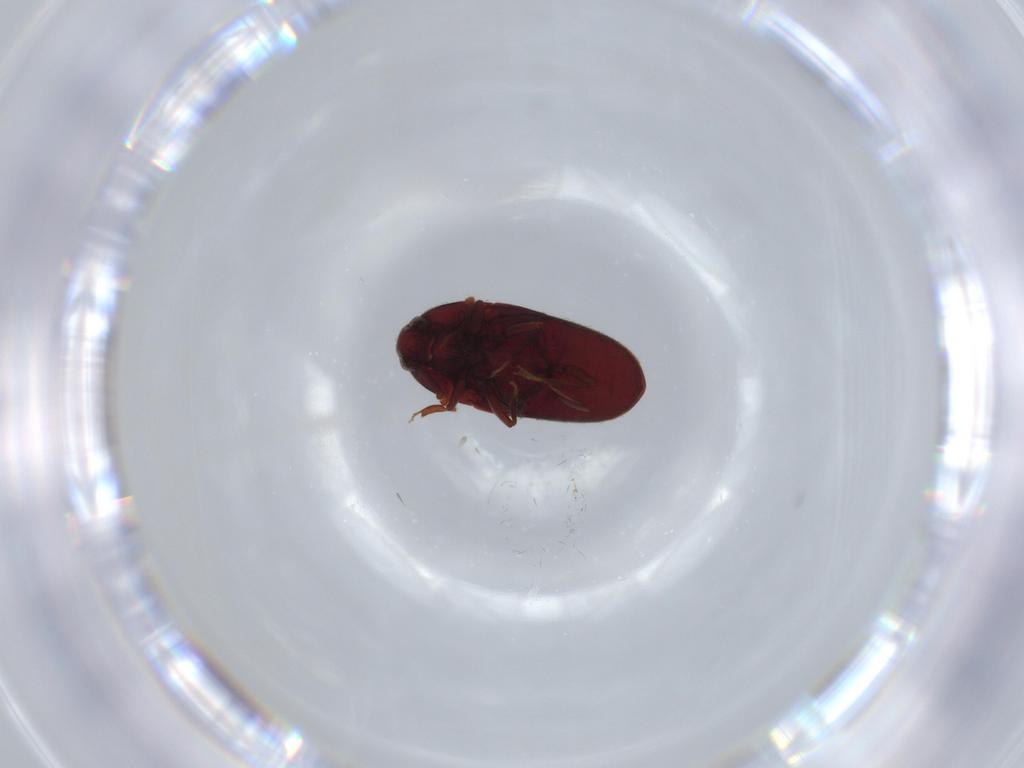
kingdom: Animalia
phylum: Arthropoda
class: Insecta
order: Coleoptera
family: Throscidae
